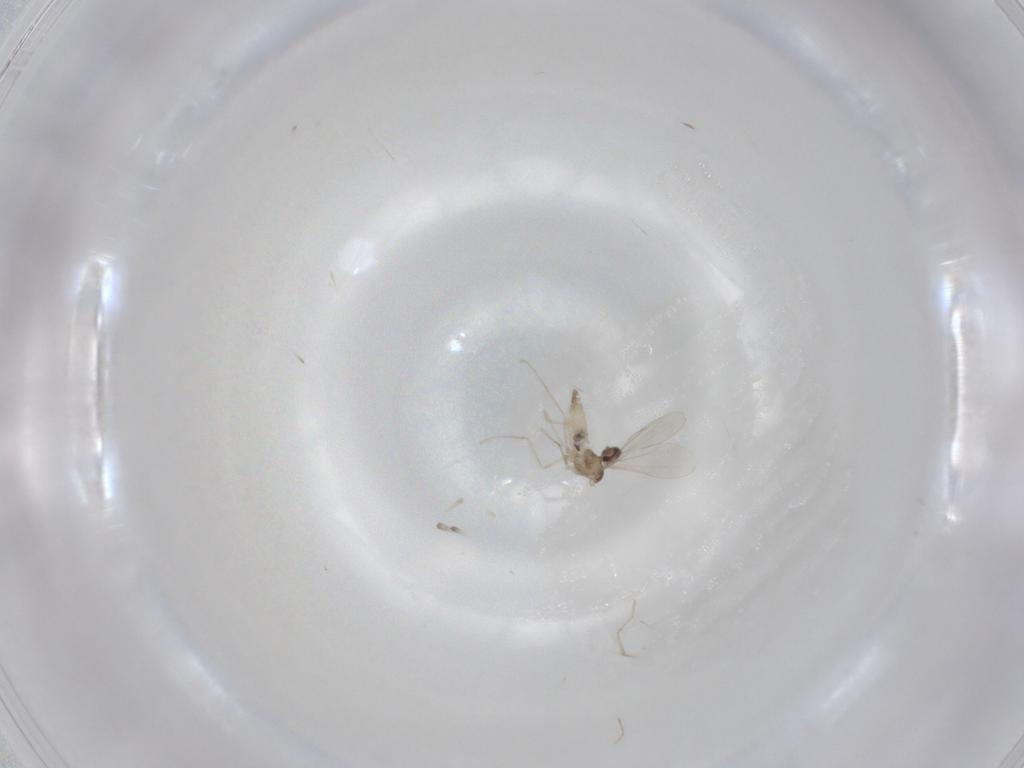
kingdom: Animalia
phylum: Arthropoda
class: Insecta
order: Diptera
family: Cecidomyiidae
